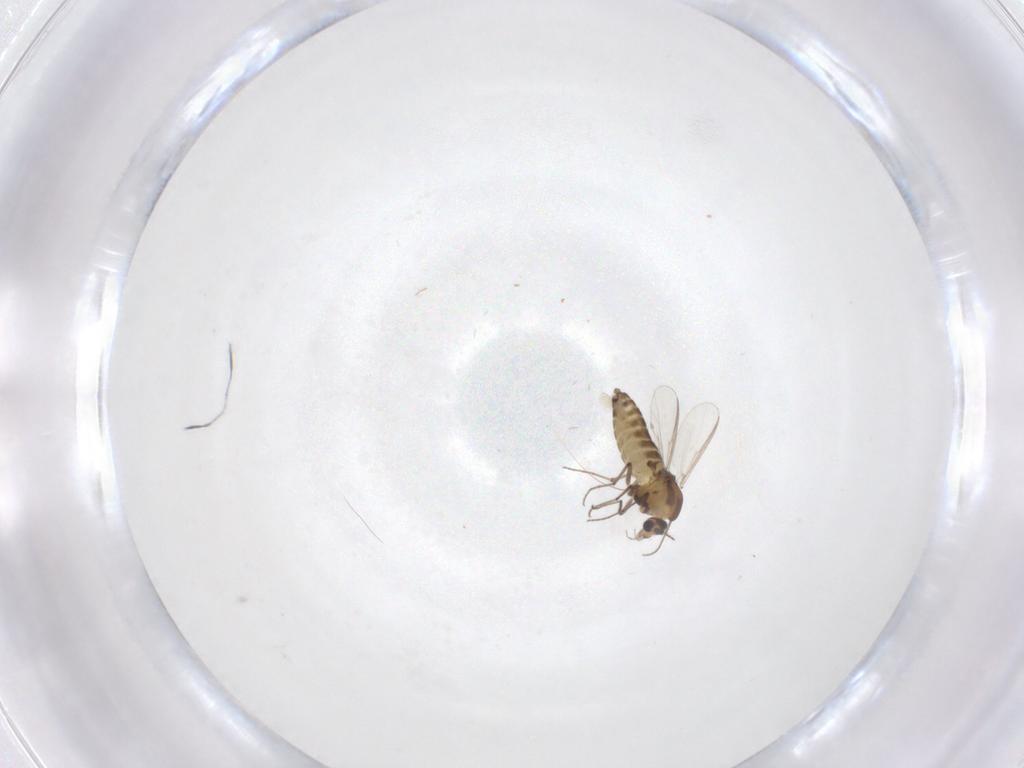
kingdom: Animalia
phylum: Arthropoda
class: Insecta
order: Diptera
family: Chironomidae
